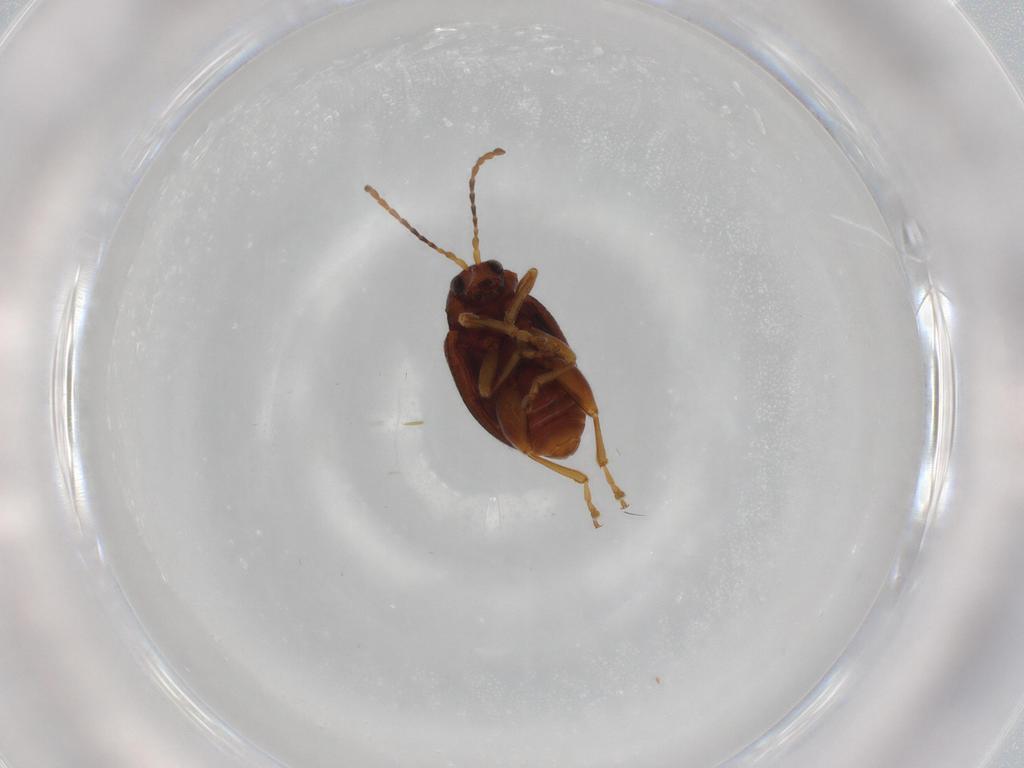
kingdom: Animalia
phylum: Arthropoda
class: Insecta
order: Coleoptera
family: Chrysomelidae
